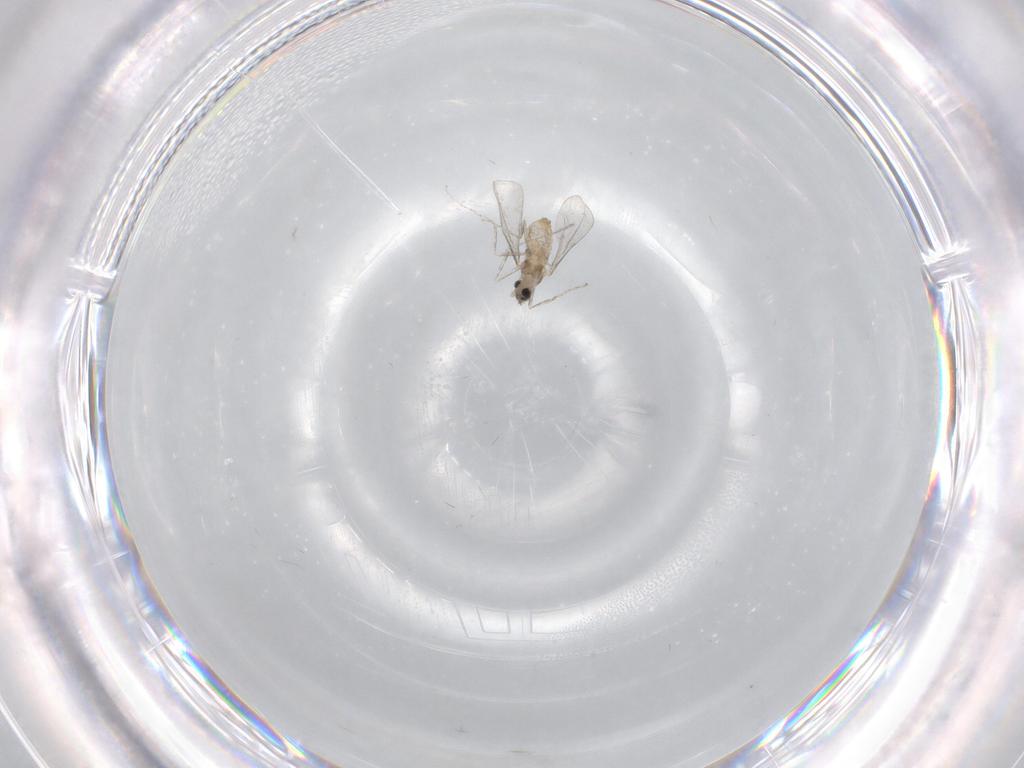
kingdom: Animalia
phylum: Arthropoda
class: Insecta
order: Diptera
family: Cecidomyiidae
